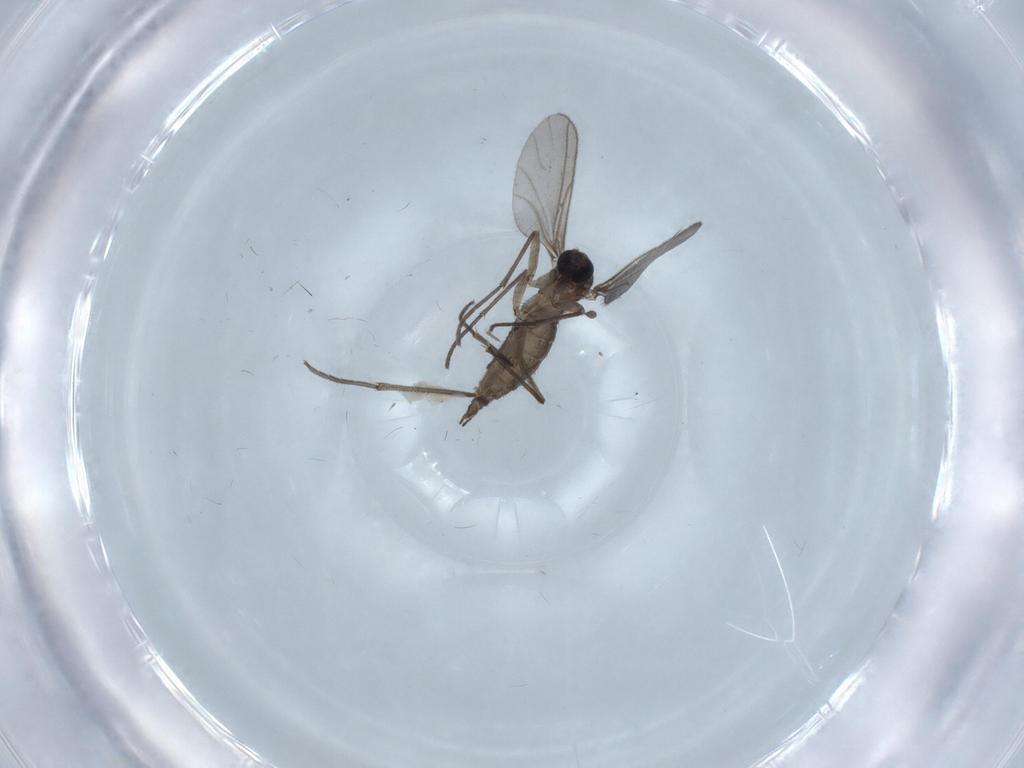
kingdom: Animalia
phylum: Arthropoda
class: Insecta
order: Diptera
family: Sciaridae
